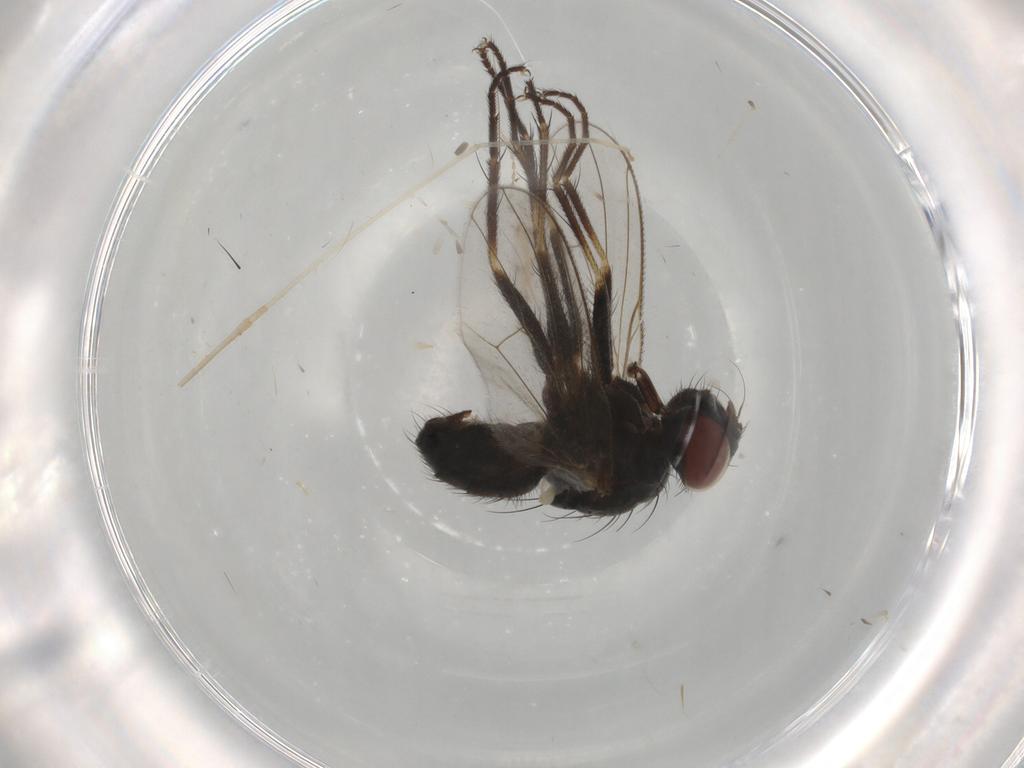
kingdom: Animalia
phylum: Arthropoda
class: Insecta
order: Diptera
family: Muscidae
